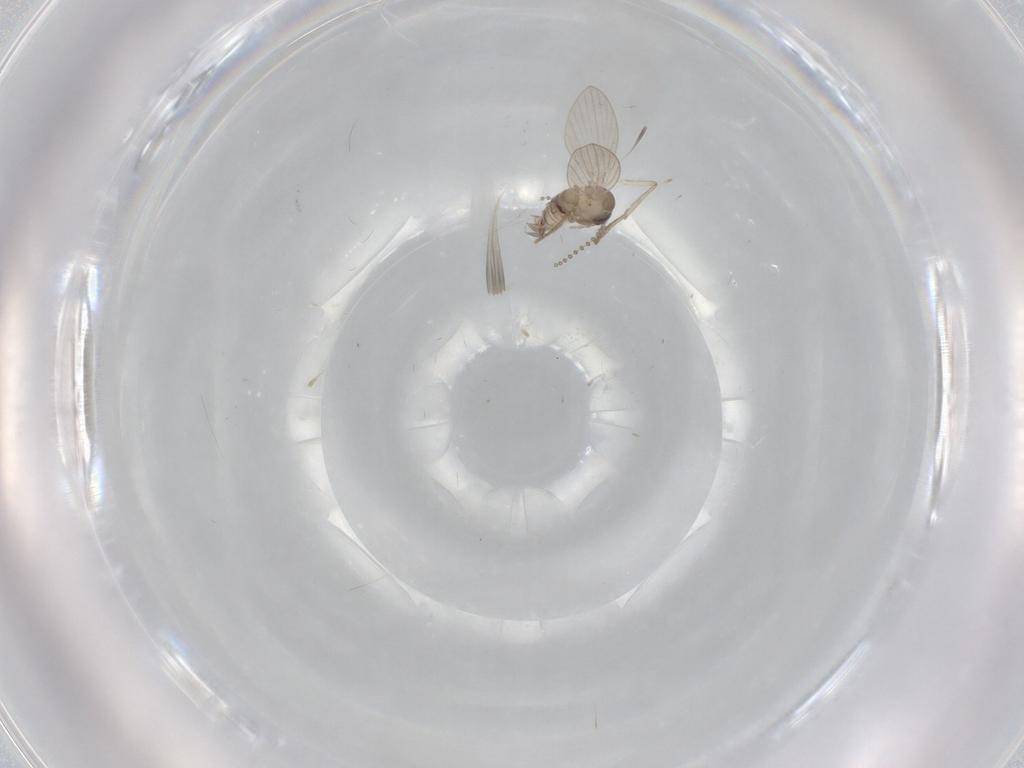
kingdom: Animalia
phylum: Arthropoda
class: Insecta
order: Diptera
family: Psychodidae
